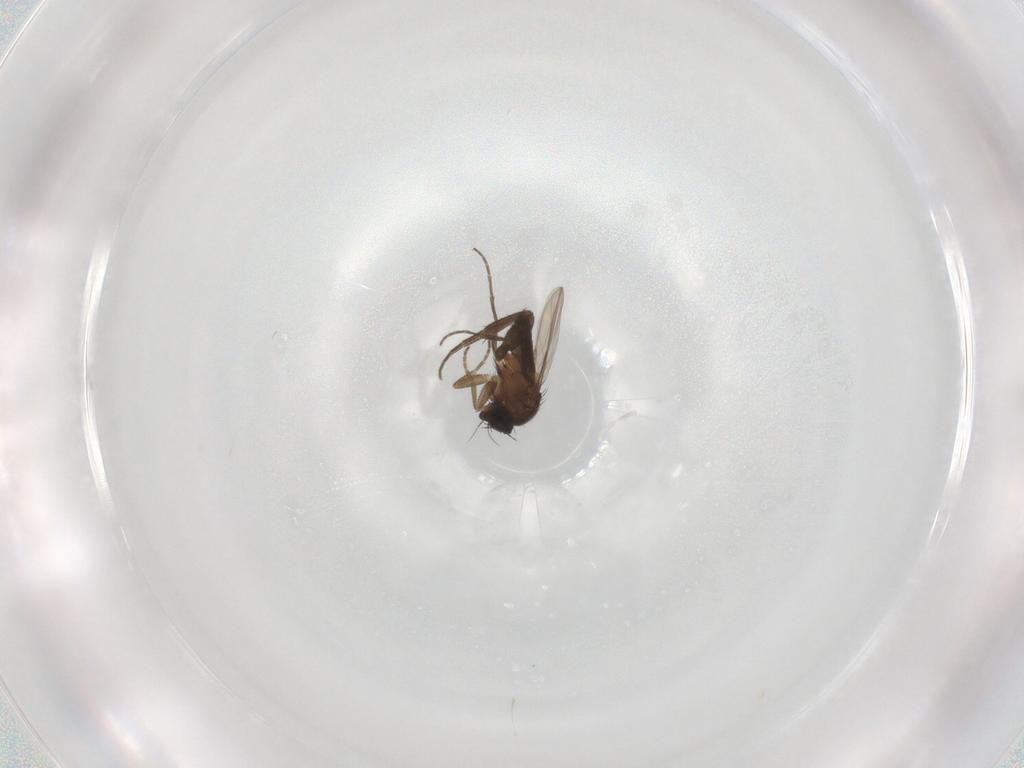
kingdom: Animalia
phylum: Arthropoda
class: Insecta
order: Diptera
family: Phoridae
